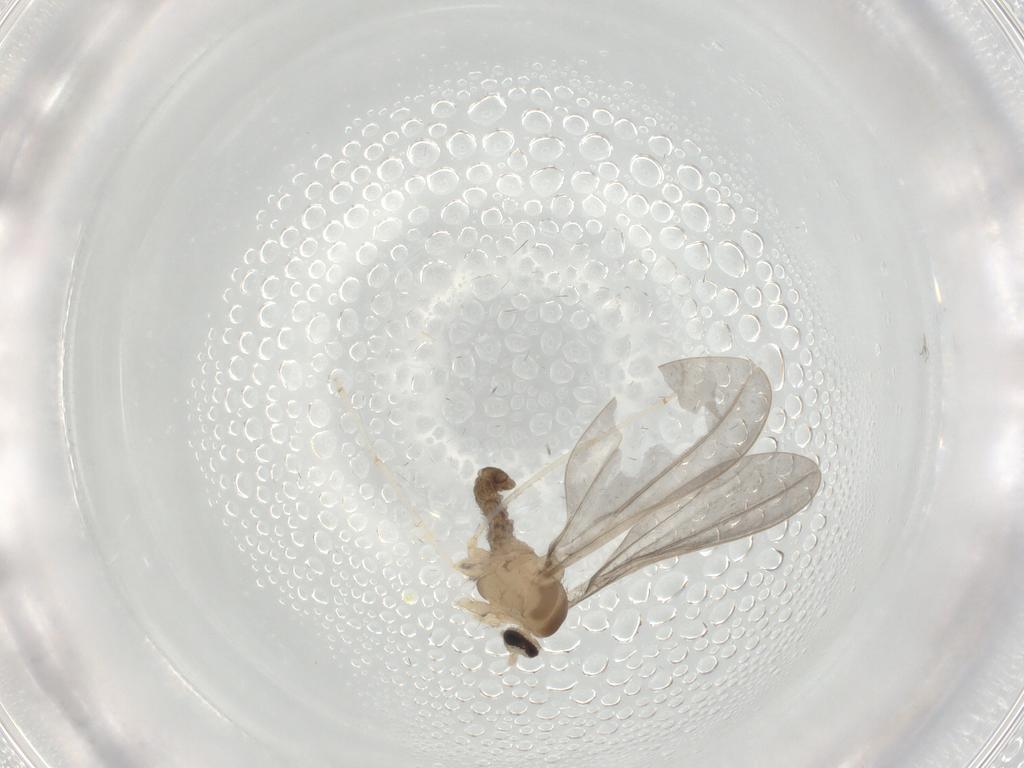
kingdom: Animalia
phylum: Arthropoda
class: Insecta
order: Diptera
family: Cecidomyiidae
